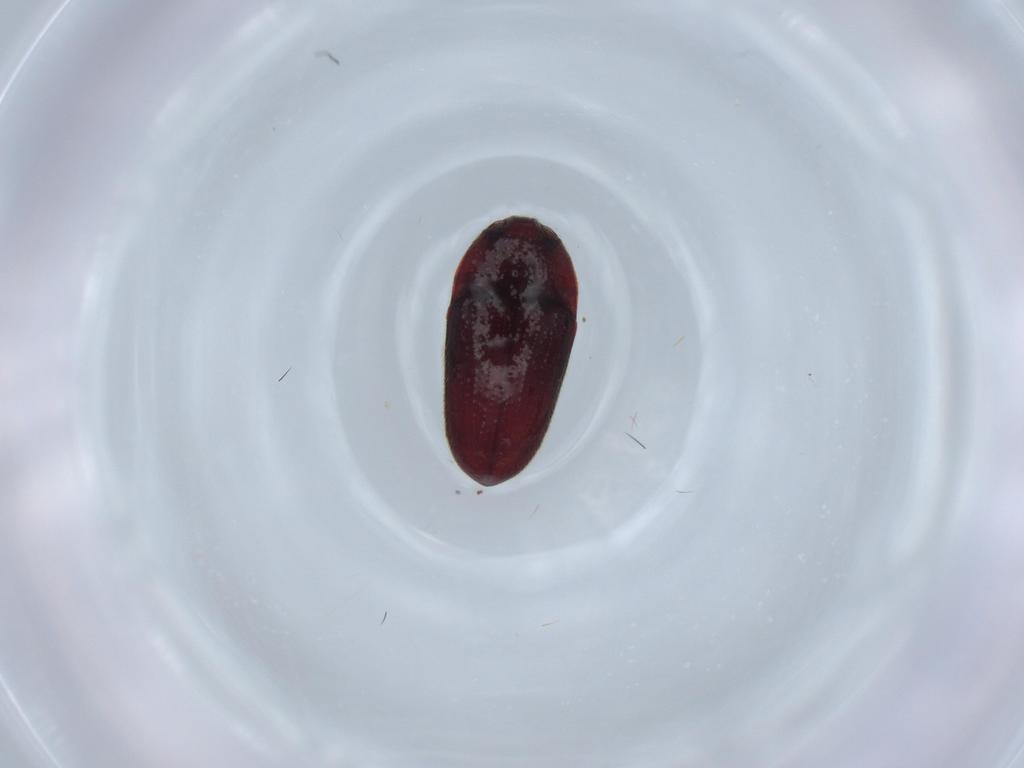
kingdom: Animalia
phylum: Arthropoda
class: Insecta
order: Coleoptera
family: Throscidae
